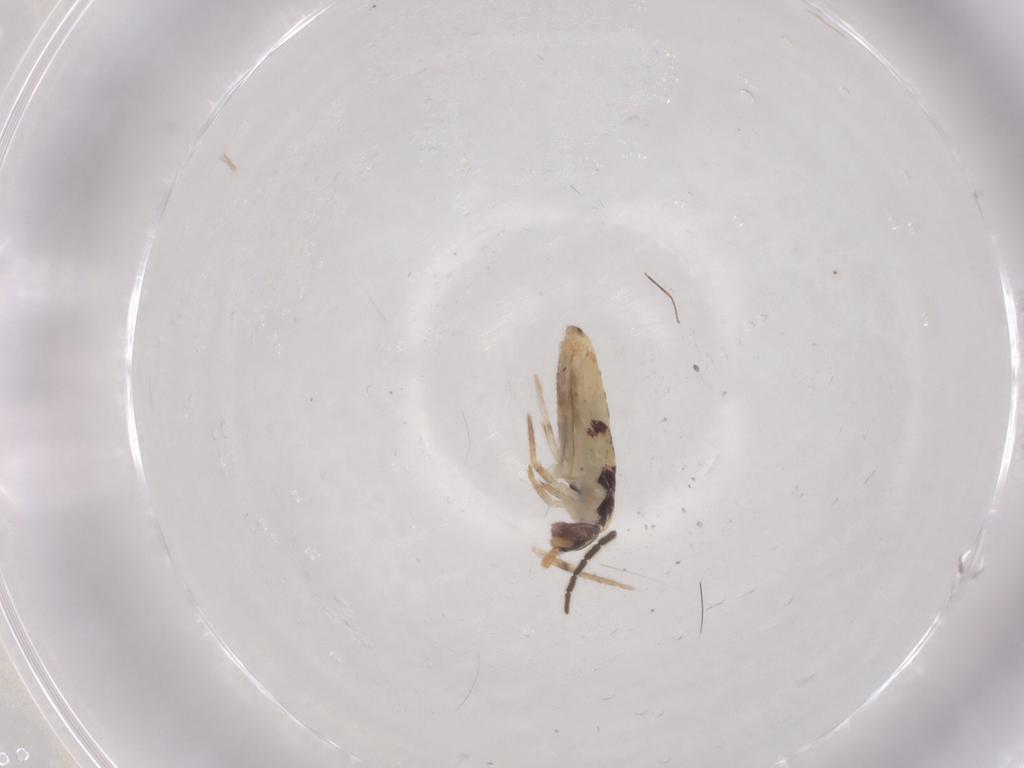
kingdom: Animalia
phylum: Arthropoda
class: Collembola
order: Entomobryomorpha
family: Entomobryidae
